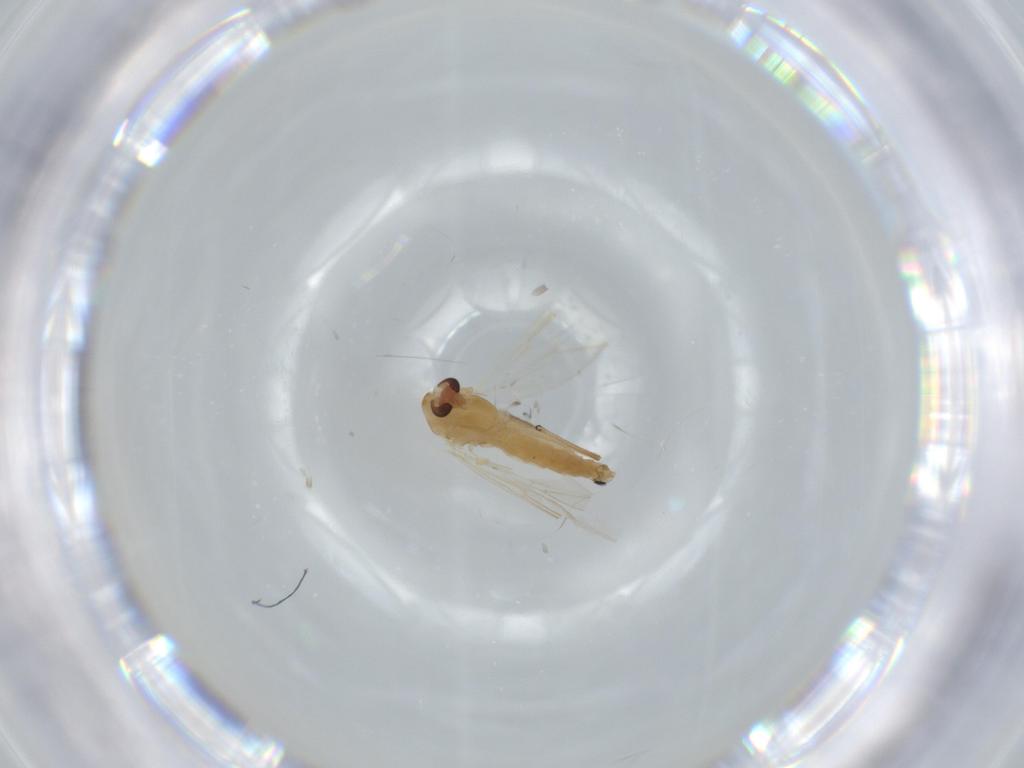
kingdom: Animalia
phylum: Arthropoda
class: Insecta
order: Diptera
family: Chironomidae
